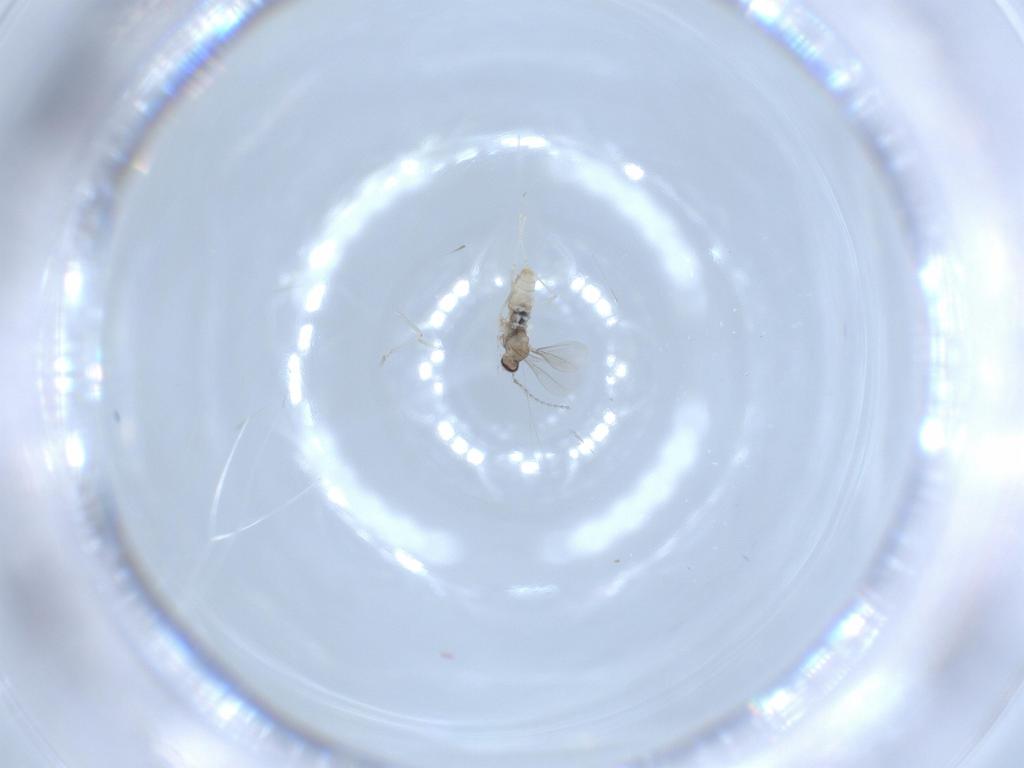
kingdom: Animalia
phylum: Arthropoda
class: Insecta
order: Diptera
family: Cecidomyiidae
